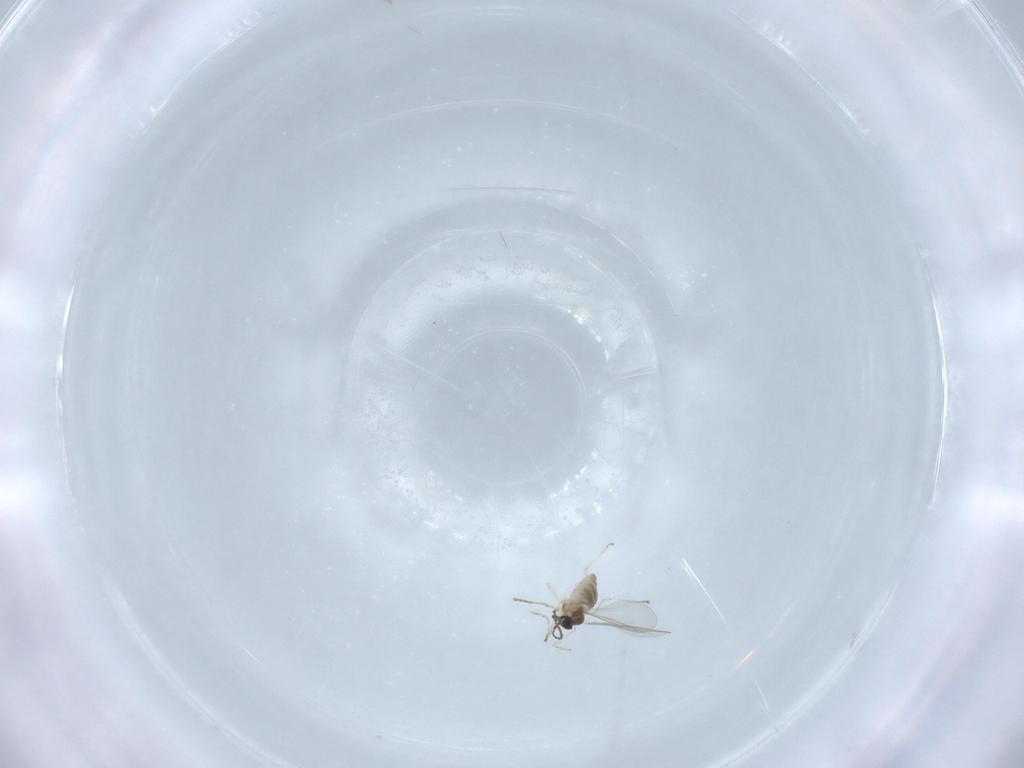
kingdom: Animalia
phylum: Arthropoda
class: Insecta
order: Diptera
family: Cecidomyiidae
